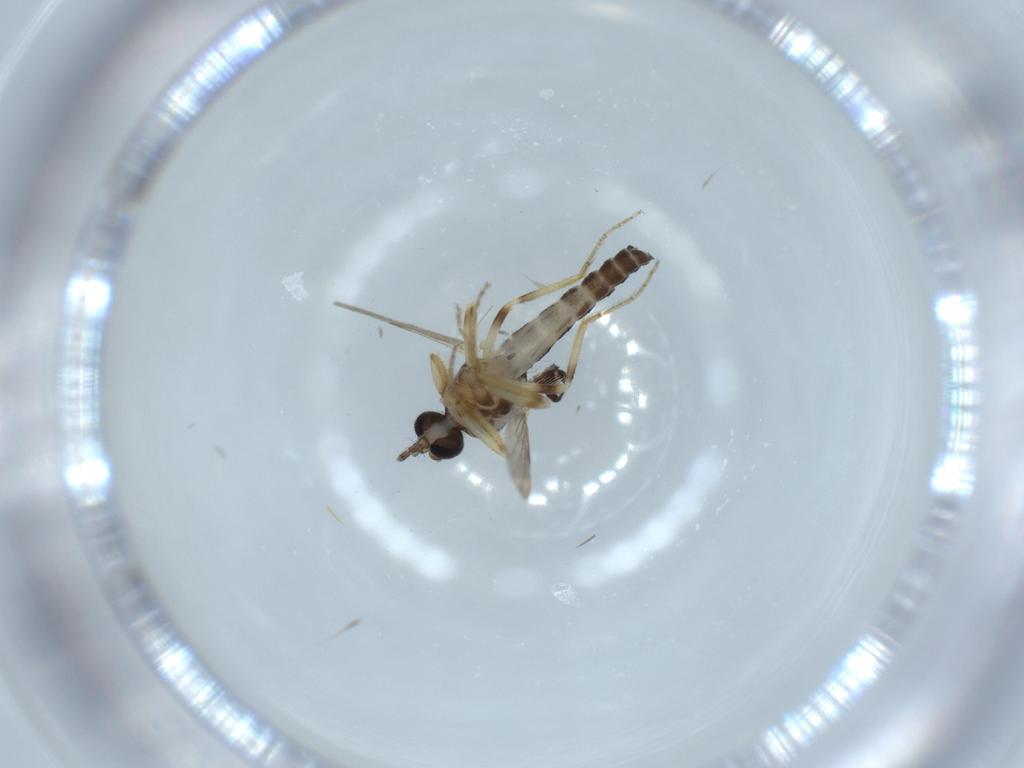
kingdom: Animalia
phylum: Arthropoda
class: Insecta
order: Diptera
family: Ceratopogonidae
